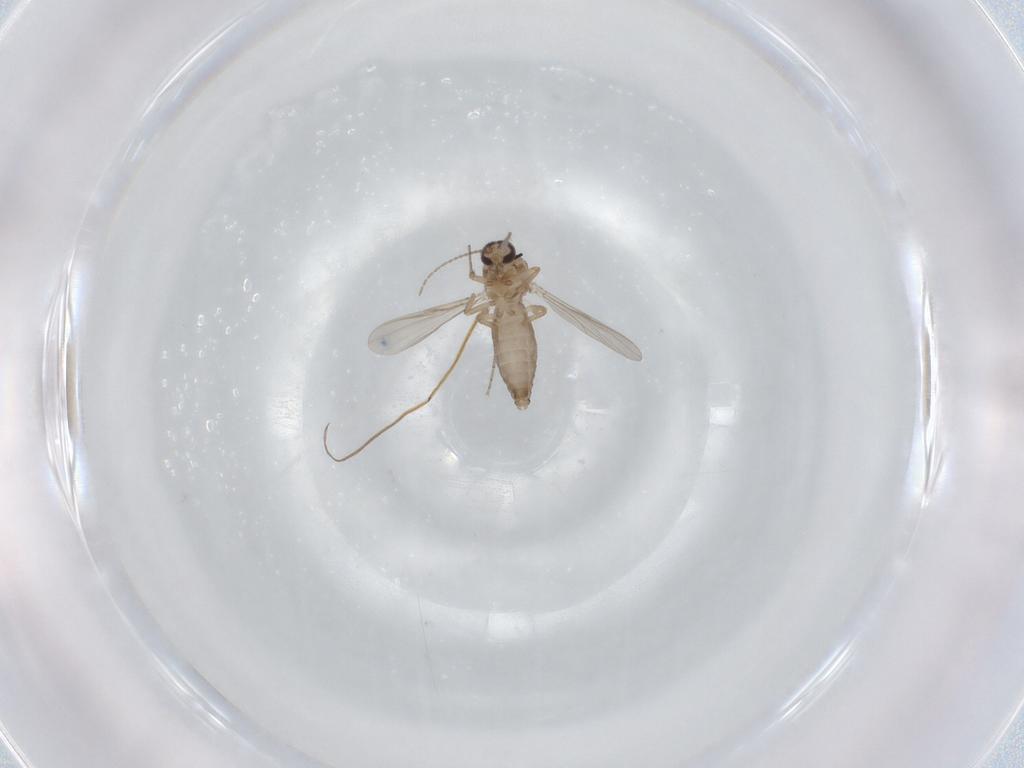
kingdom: Animalia
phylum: Arthropoda
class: Insecta
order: Diptera
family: Ceratopogonidae
